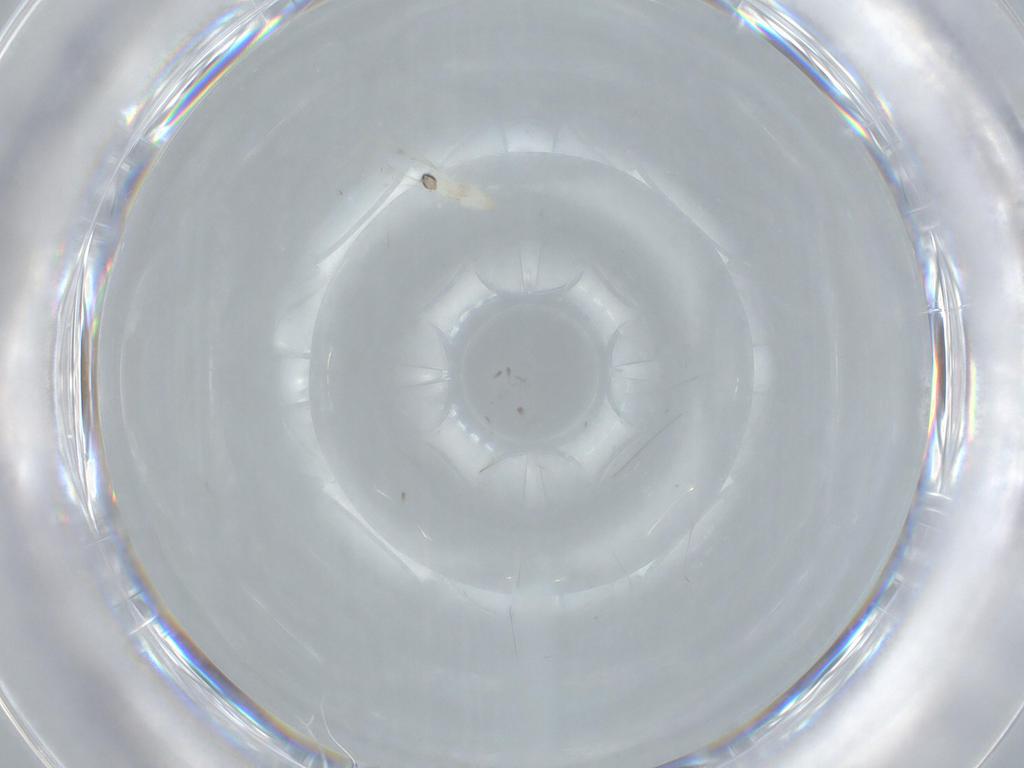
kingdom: Animalia
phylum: Arthropoda
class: Insecta
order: Diptera
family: Cecidomyiidae
